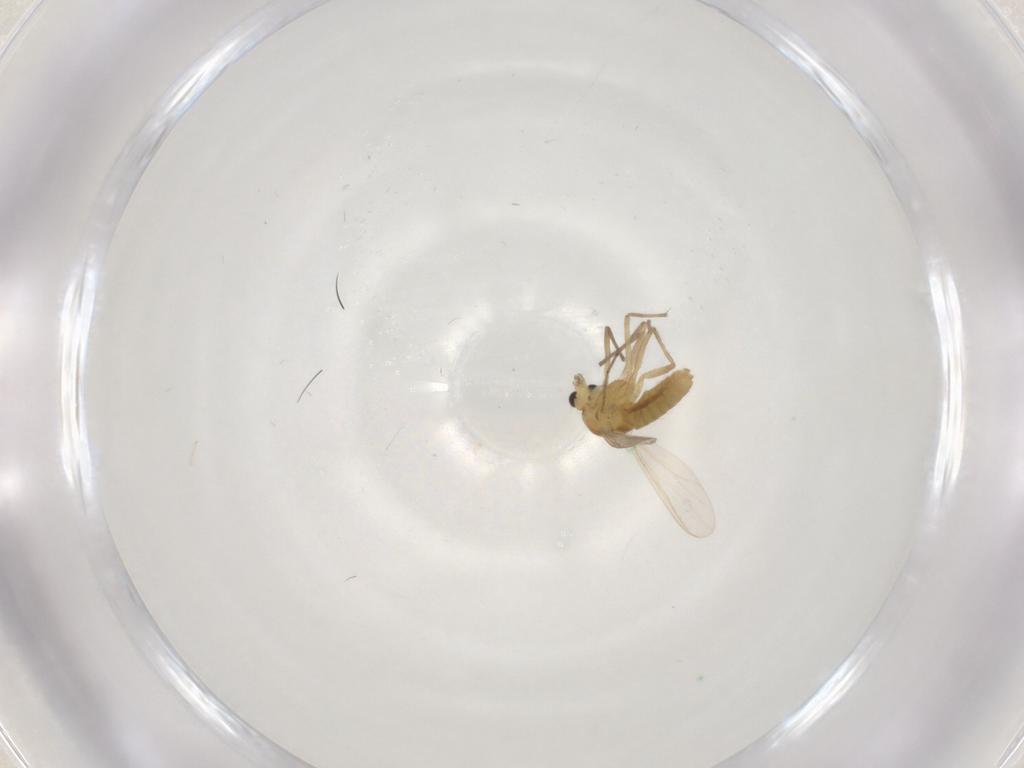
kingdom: Animalia
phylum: Arthropoda
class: Insecta
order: Diptera
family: Chironomidae
